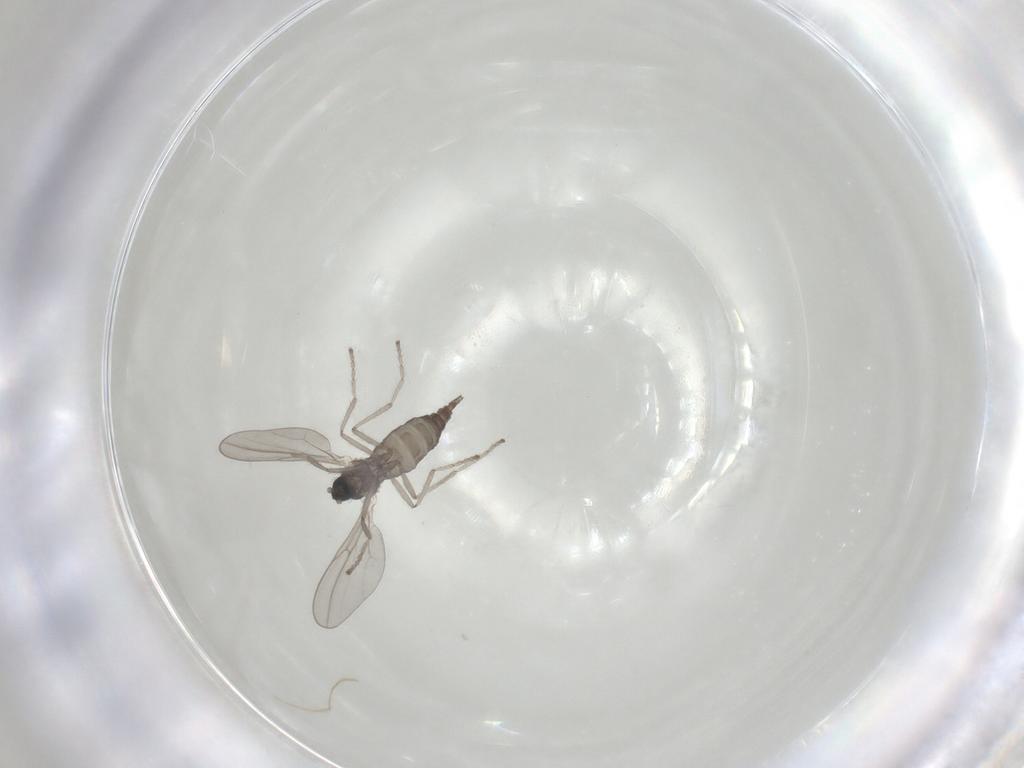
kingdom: Animalia
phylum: Arthropoda
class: Insecta
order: Diptera
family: Cecidomyiidae
